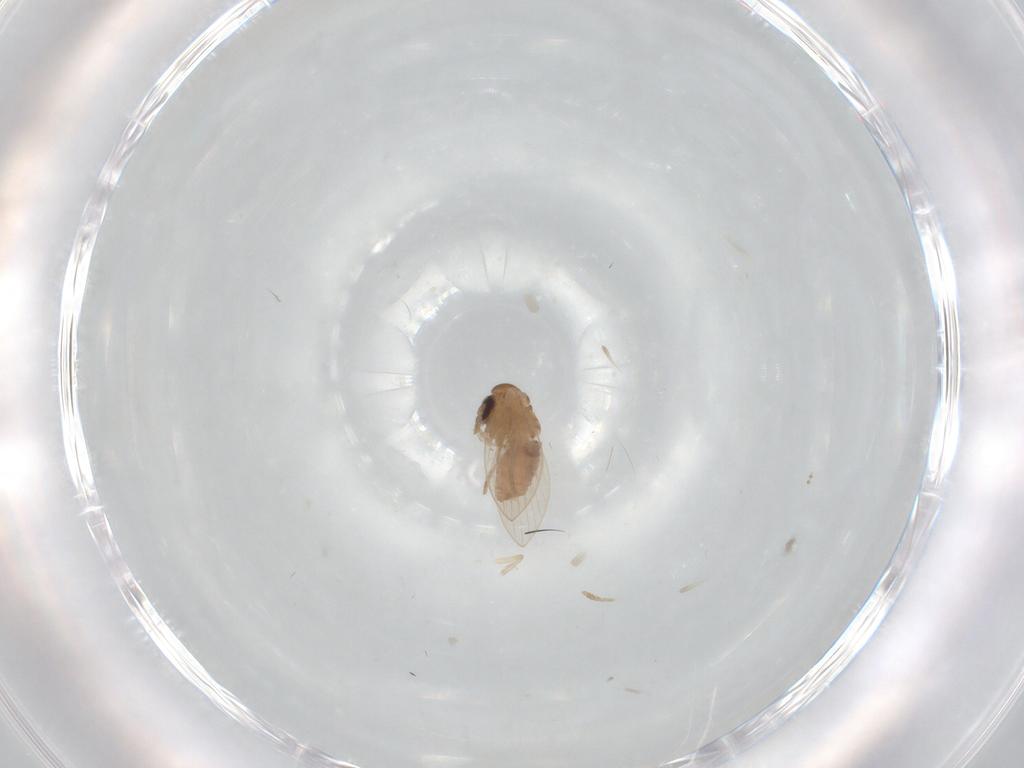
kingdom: Animalia
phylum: Arthropoda
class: Insecta
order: Diptera
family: Psychodidae
